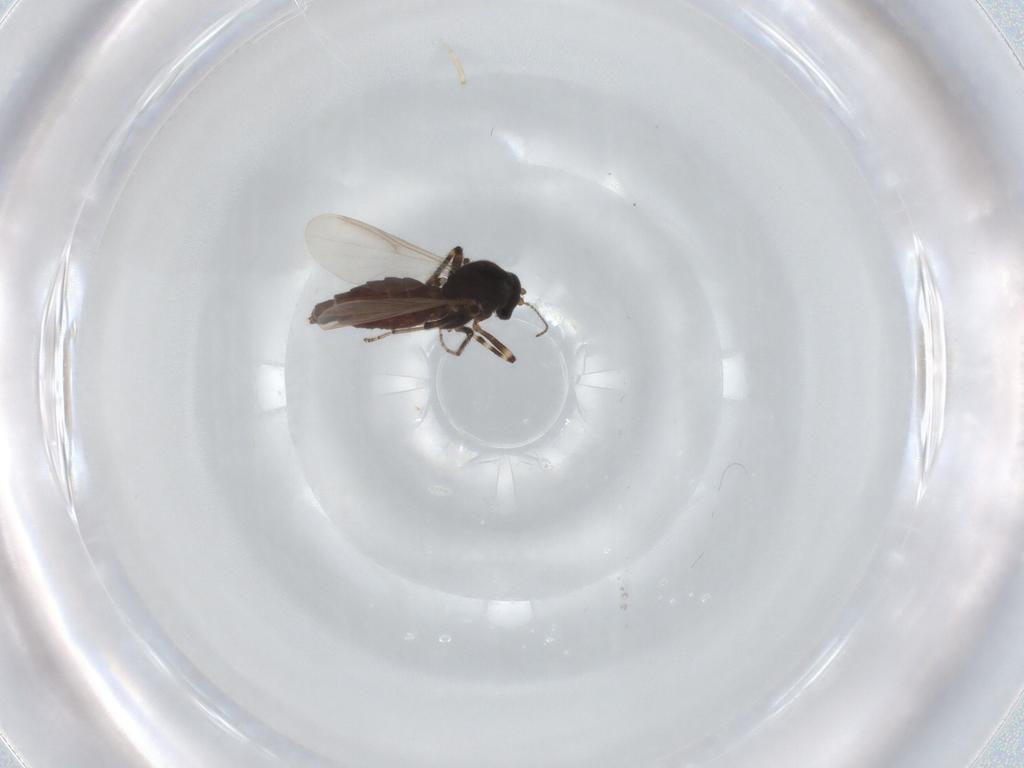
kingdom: Animalia
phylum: Arthropoda
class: Insecta
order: Diptera
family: Ceratopogonidae
